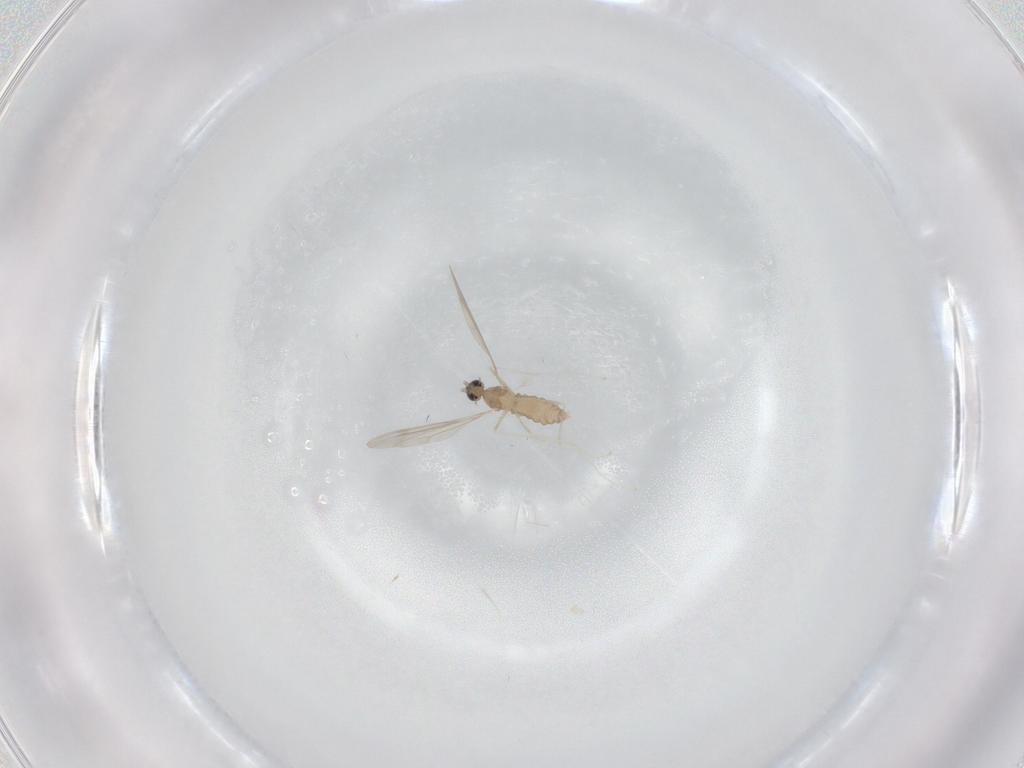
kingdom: Animalia
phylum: Arthropoda
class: Insecta
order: Diptera
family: Cecidomyiidae
